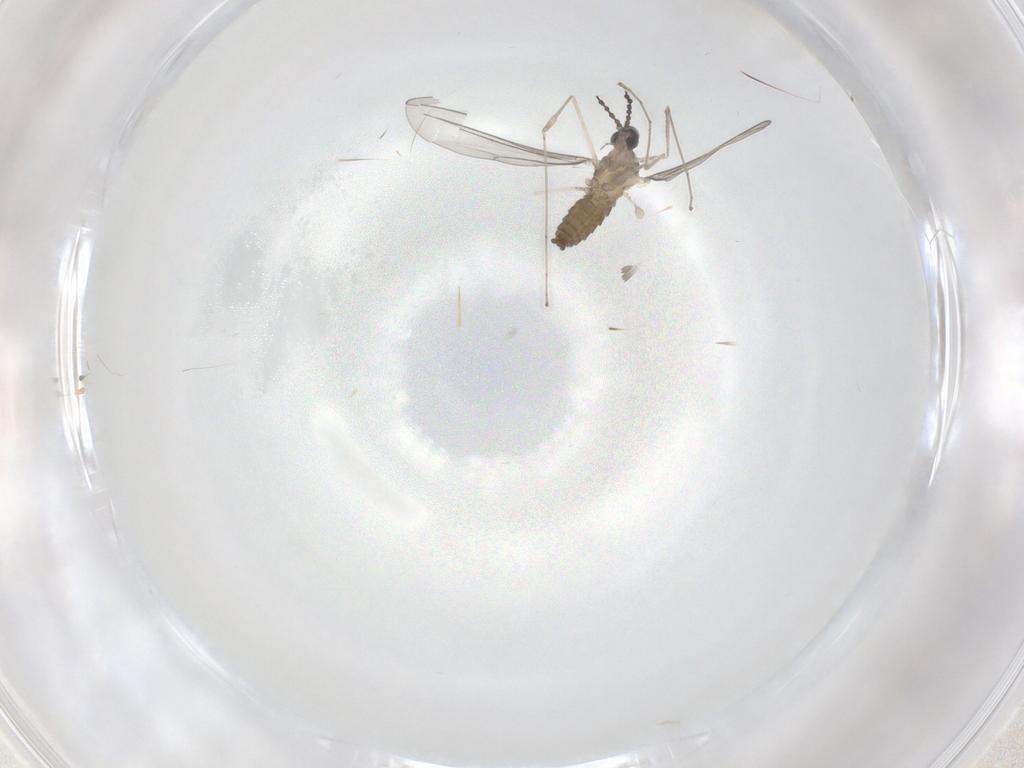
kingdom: Animalia
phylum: Arthropoda
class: Insecta
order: Diptera
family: Cecidomyiidae
